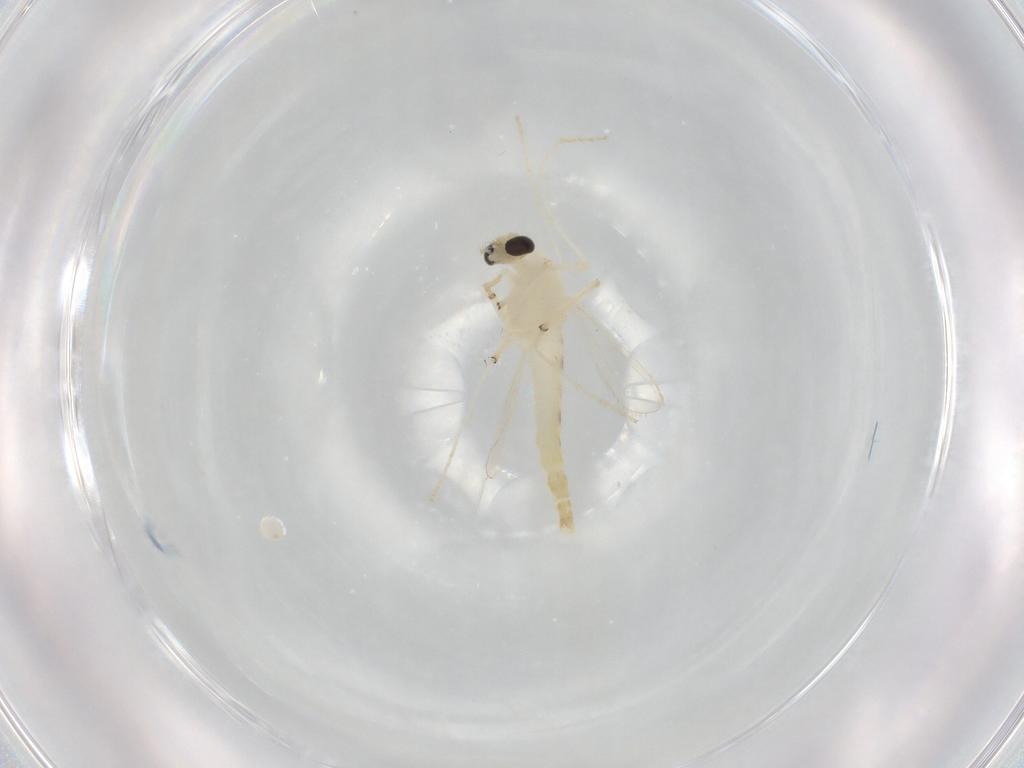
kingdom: Animalia
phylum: Arthropoda
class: Insecta
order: Diptera
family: Chironomidae
